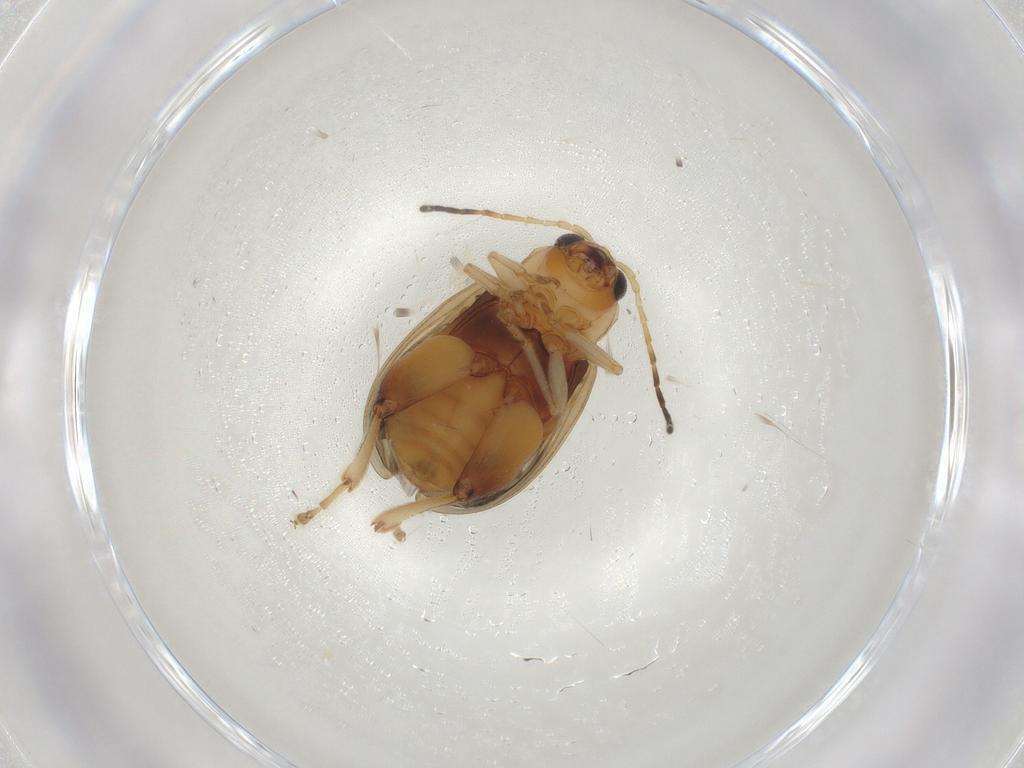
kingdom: Animalia
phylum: Arthropoda
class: Insecta
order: Coleoptera
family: Chrysomelidae
